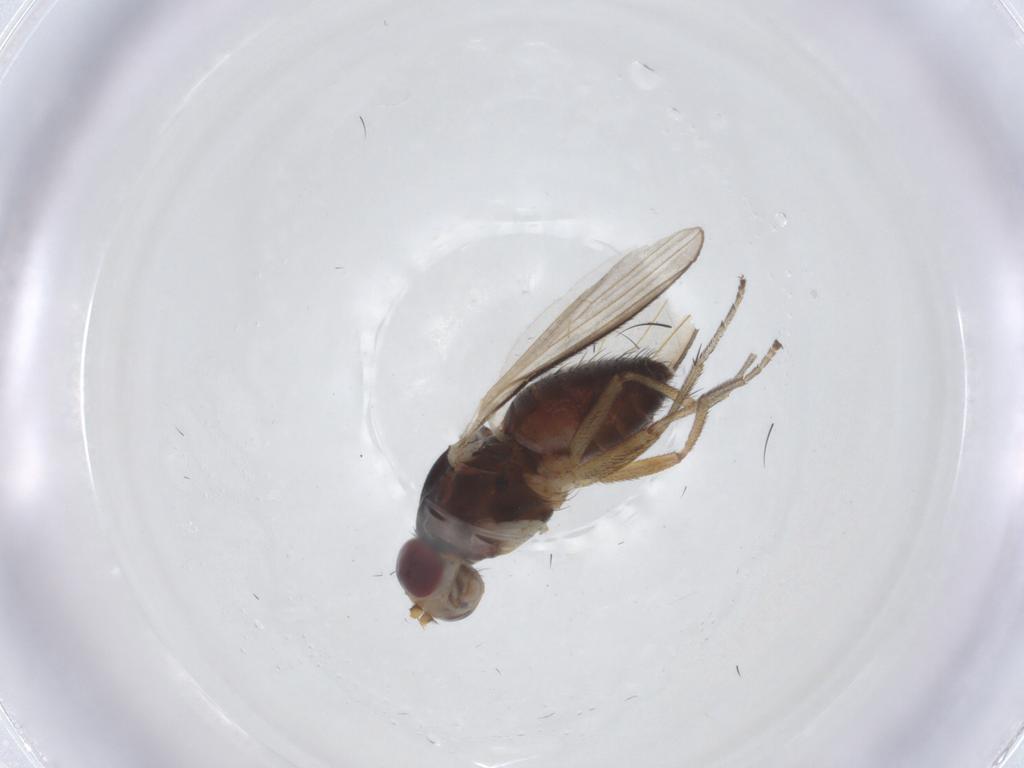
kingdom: Animalia
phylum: Arthropoda
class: Insecta
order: Diptera
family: Heleomyzidae
